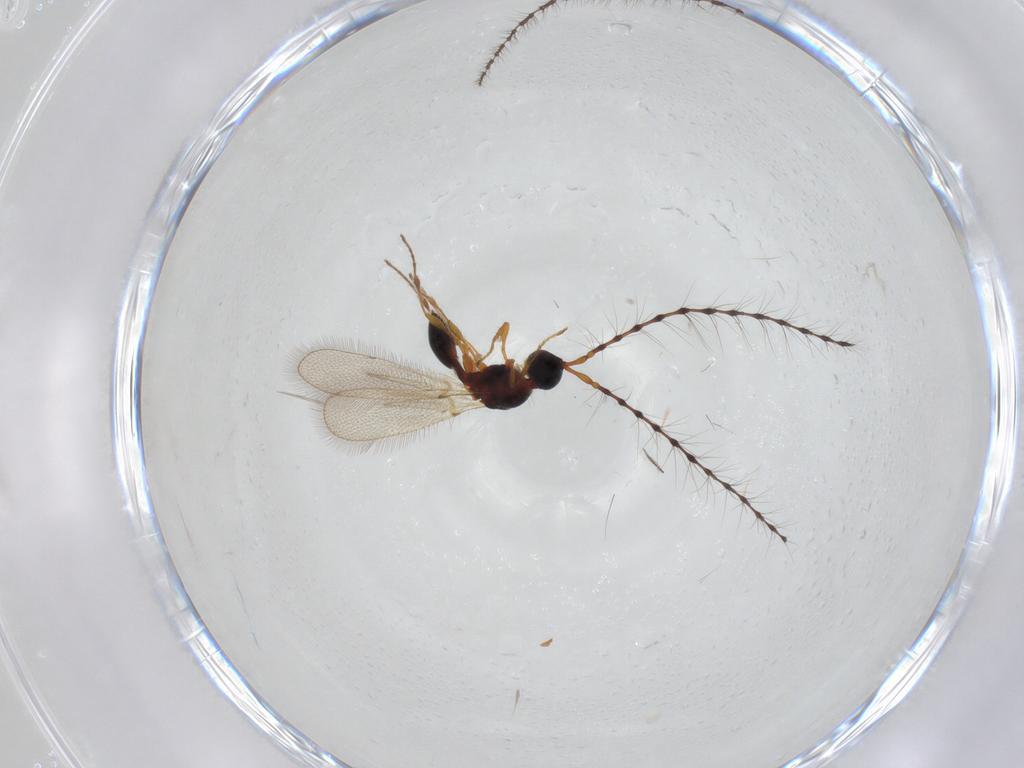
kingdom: Animalia
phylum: Arthropoda
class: Insecta
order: Hymenoptera
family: Diapriidae
